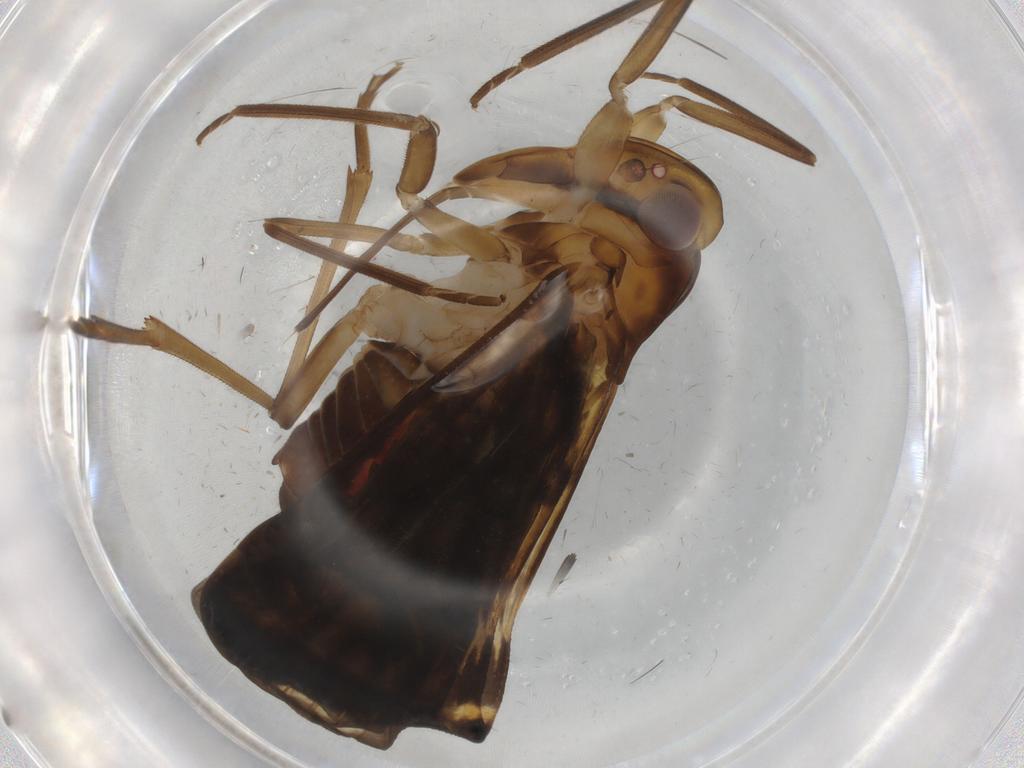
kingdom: Animalia
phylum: Arthropoda
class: Insecta
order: Hemiptera
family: Cixiidae
